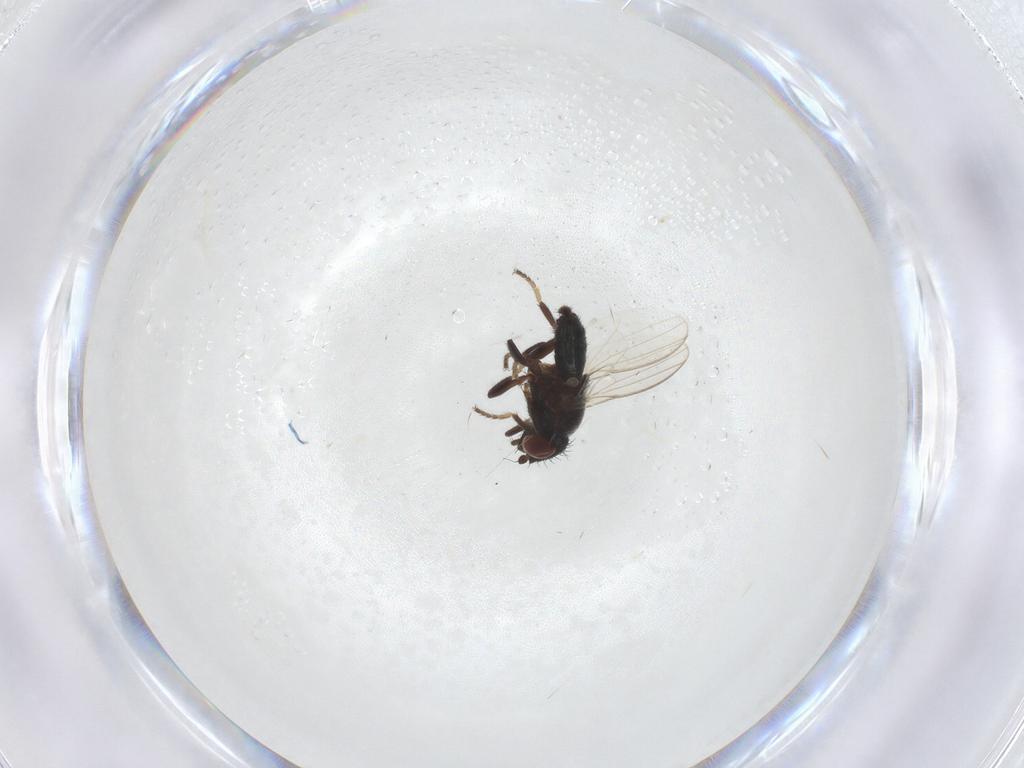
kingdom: Animalia
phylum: Arthropoda
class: Insecta
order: Diptera
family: Milichiidae
